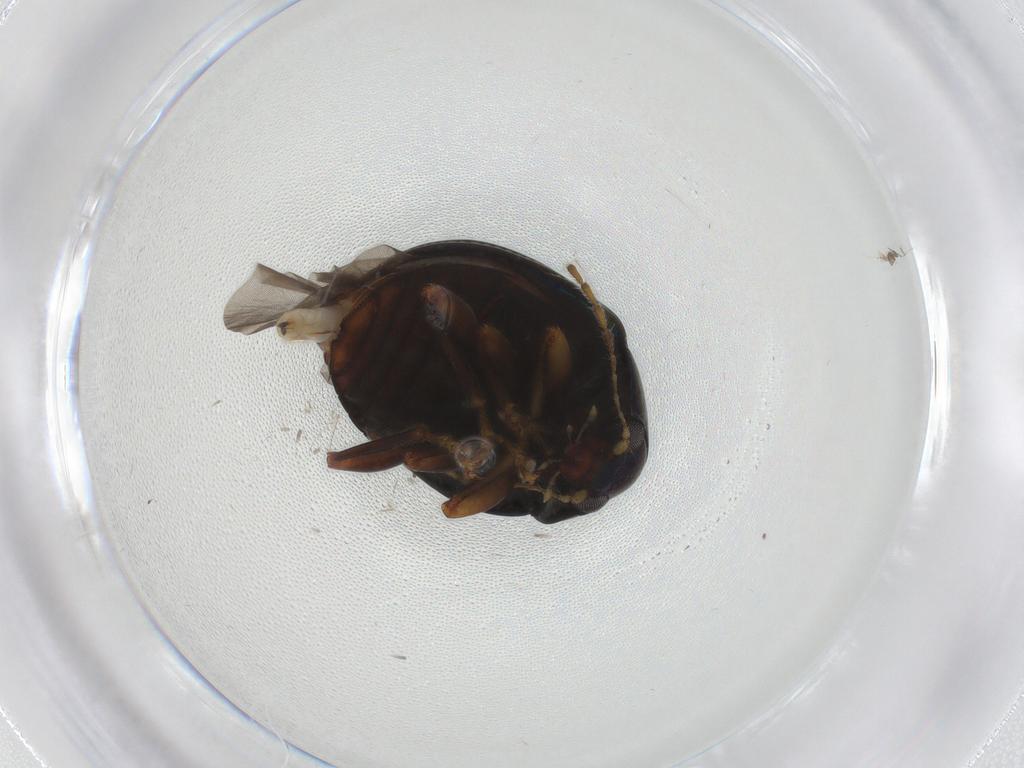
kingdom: Animalia
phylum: Arthropoda
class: Insecta
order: Coleoptera
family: Chrysomelidae
